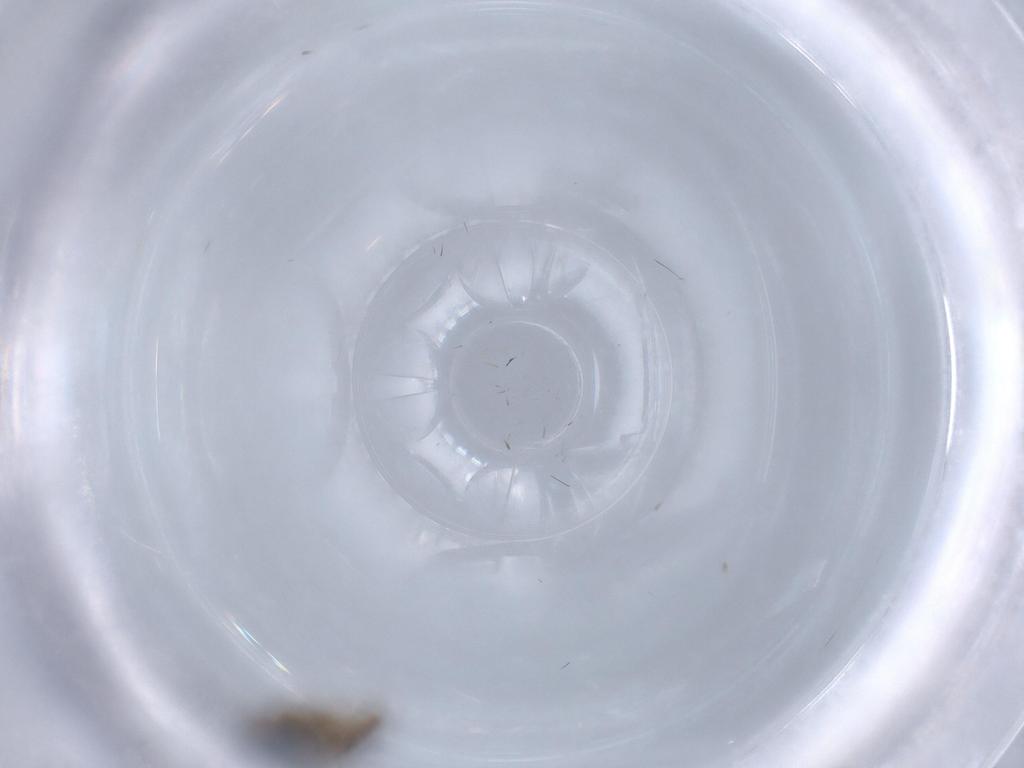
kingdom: Animalia
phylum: Arthropoda
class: Insecta
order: Diptera
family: Chloropidae
